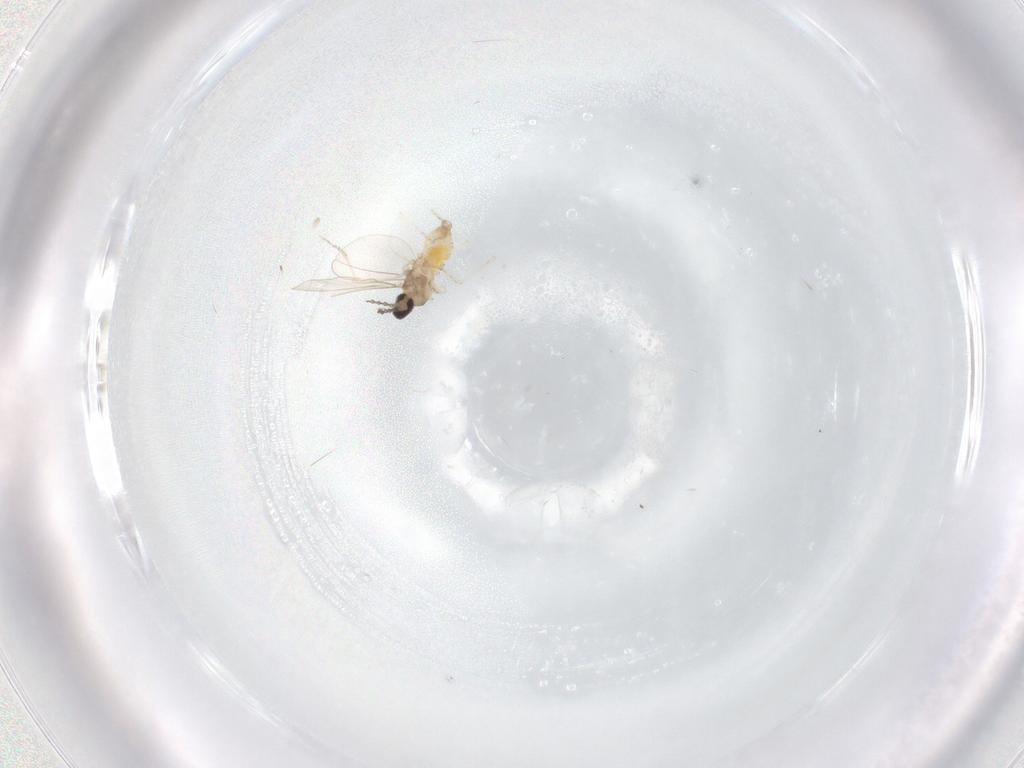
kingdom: Animalia
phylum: Arthropoda
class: Insecta
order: Diptera
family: Cecidomyiidae
